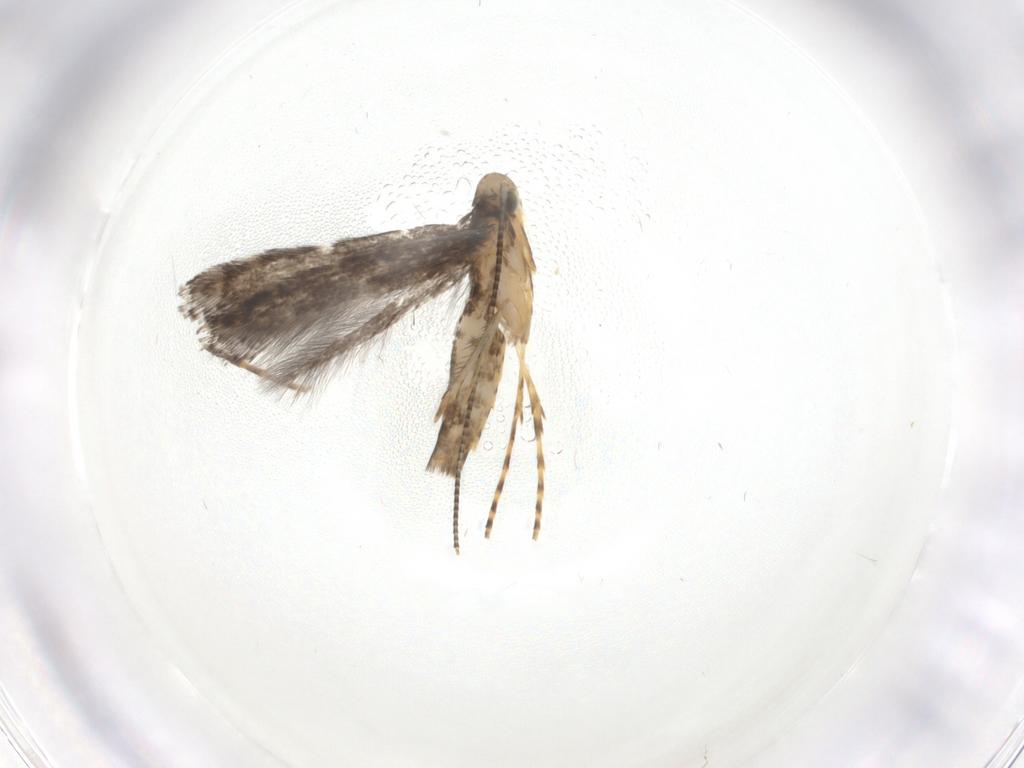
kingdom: Animalia
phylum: Arthropoda
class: Insecta
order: Lepidoptera
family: Gracillariidae
